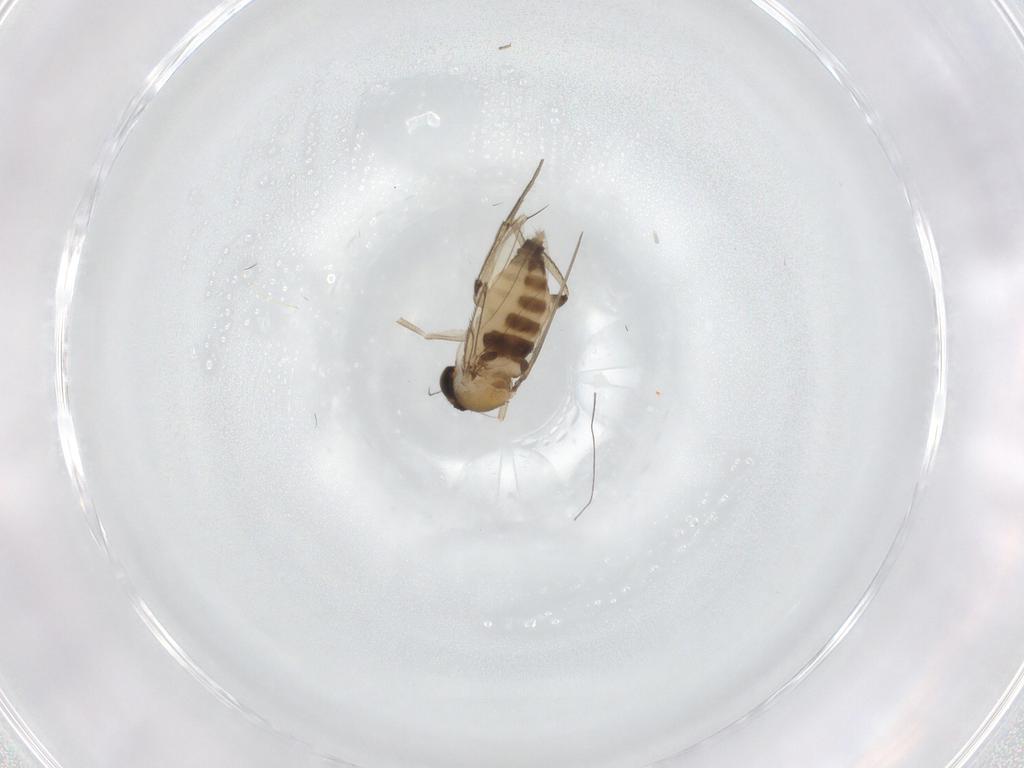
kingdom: Animalia
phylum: Arthropoda
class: Insecta
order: Diptera
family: Phoridae
